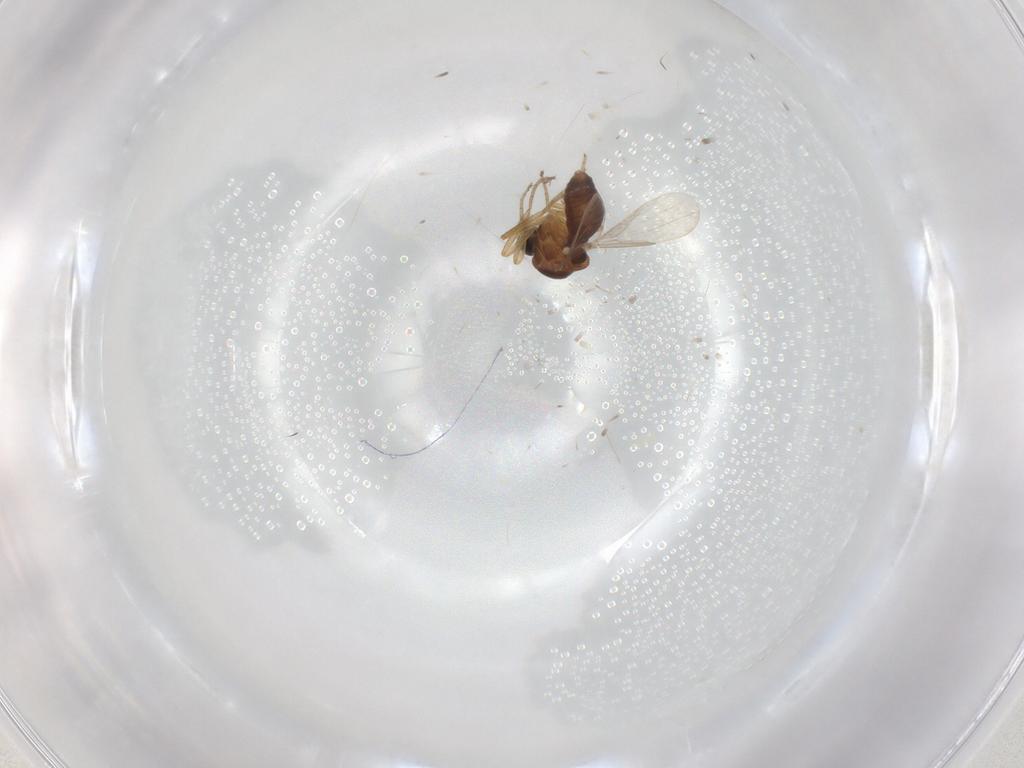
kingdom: Animalia
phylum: Arthropoda
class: Insecta
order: Diptera
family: Ceratopogonidae
